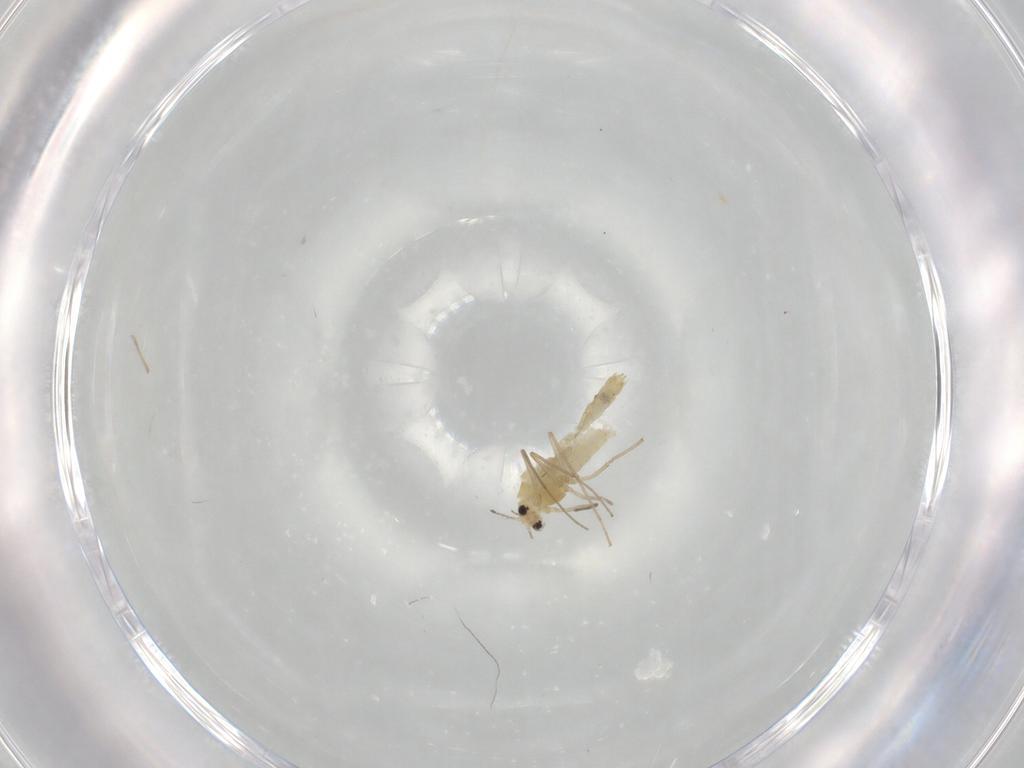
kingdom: Animalia
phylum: Arthropoda
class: Insecta
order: Diptera
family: Chironomidae
